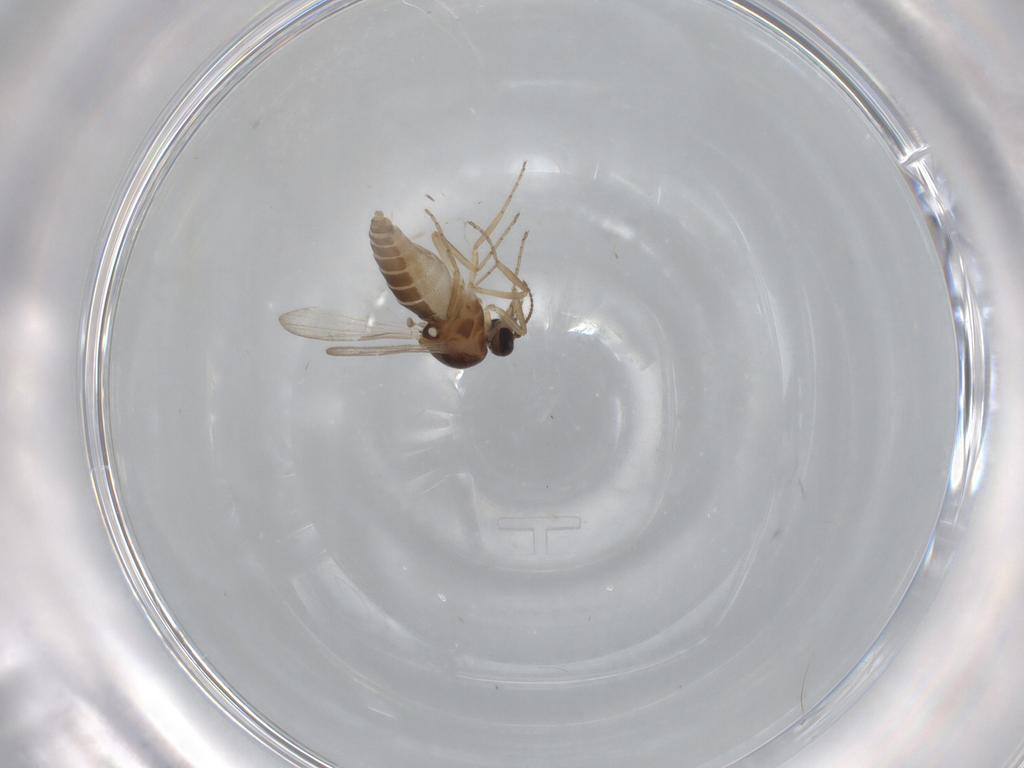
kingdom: Animalia
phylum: Arthropoda
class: Insecta
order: Diptera
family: Ceratopogonidae
